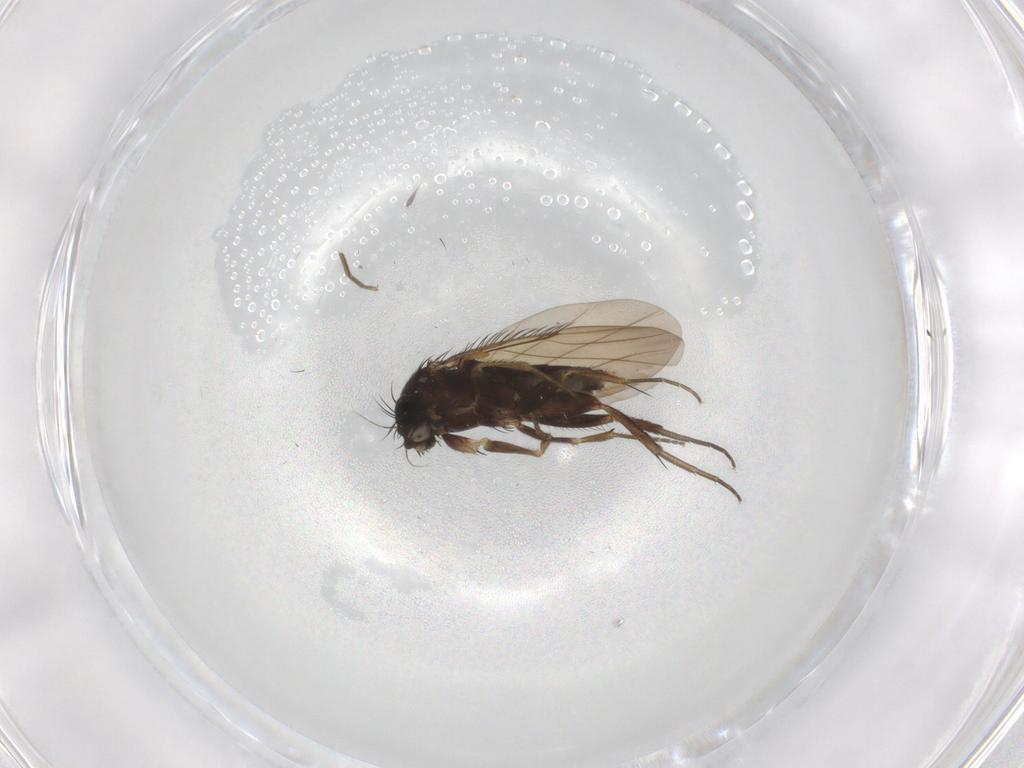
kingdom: Animalia
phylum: Arthropoda
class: Insecta
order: Diptera
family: Phoridae
